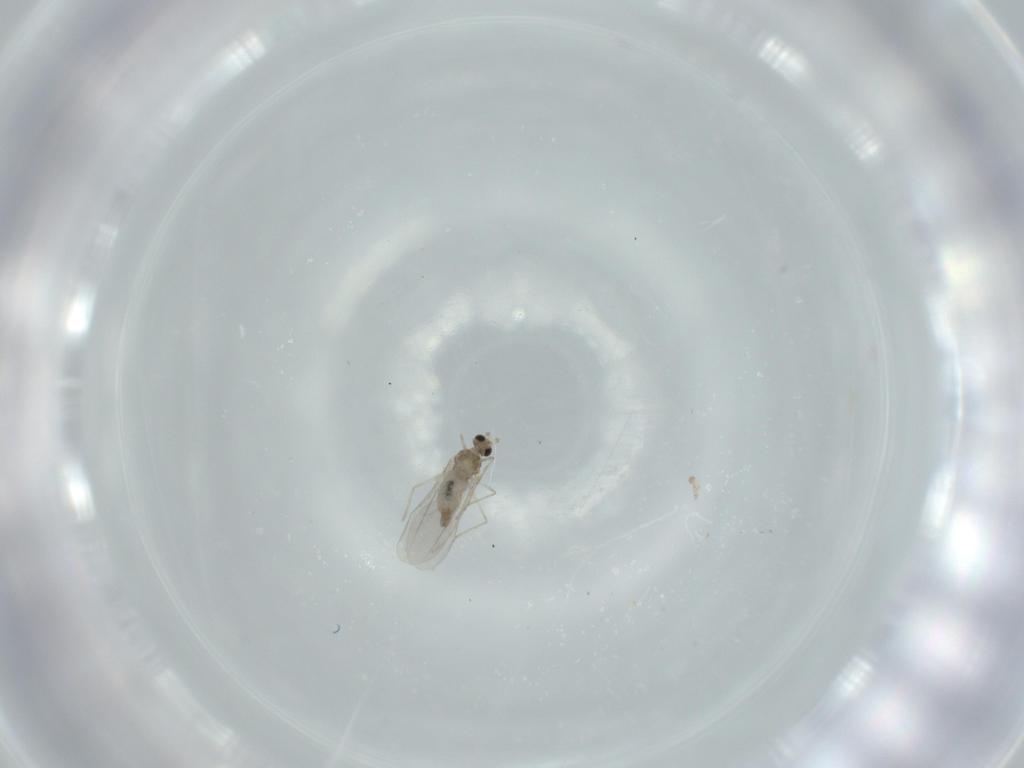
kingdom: Animalia
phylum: Arthropoda
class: Insecta
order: Diptera
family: Cecidomyiidae
